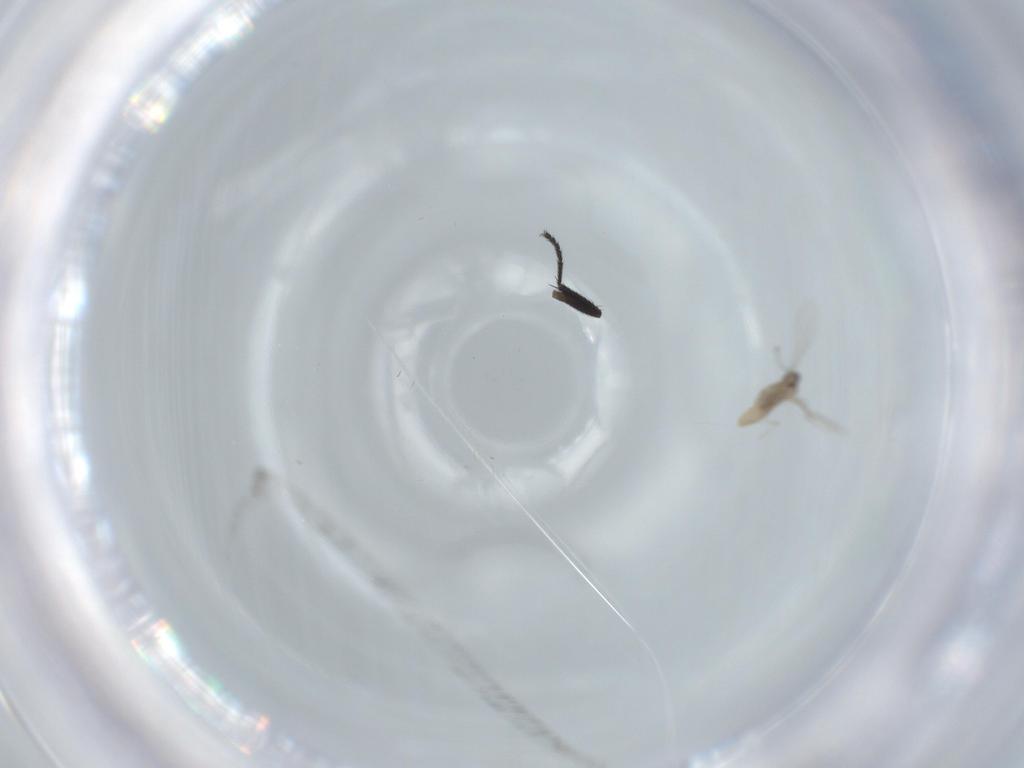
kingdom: Animalia
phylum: Arthropoda
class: Insecta
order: Diptera
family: Cecidomyiidae
